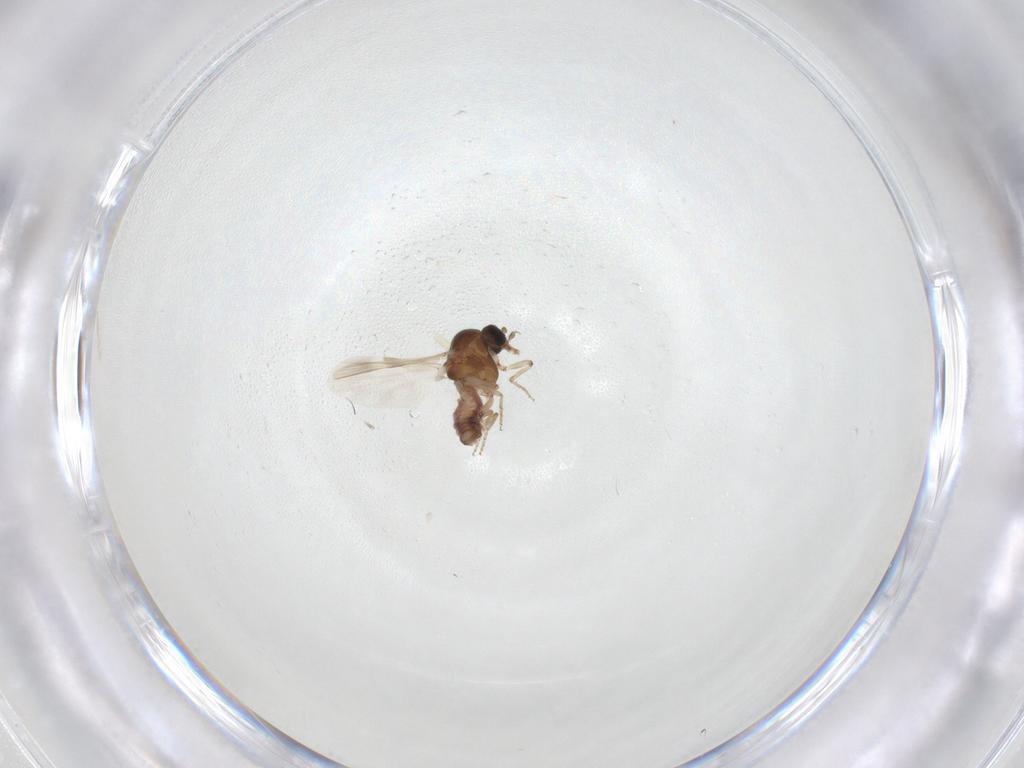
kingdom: Animalia
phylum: Arthropoda
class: Insecta
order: Diptera
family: Ceratopogonidae
